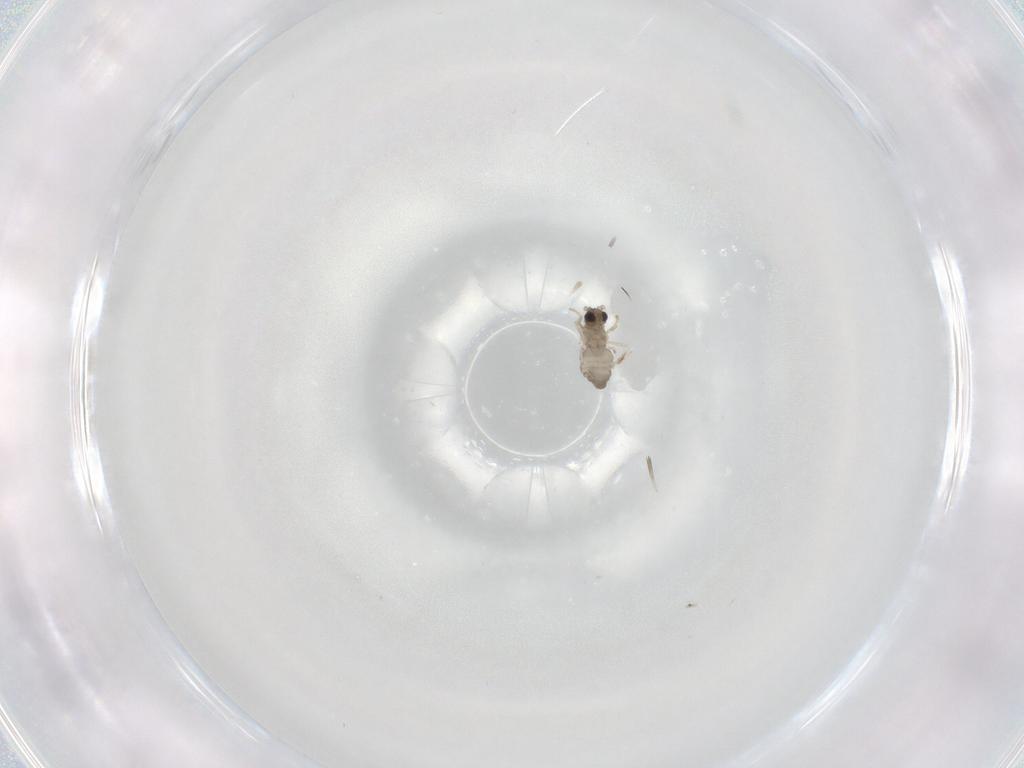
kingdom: Animalia
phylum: Arthropoda
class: Insecta
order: Diptera
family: Cecidomyiidae
